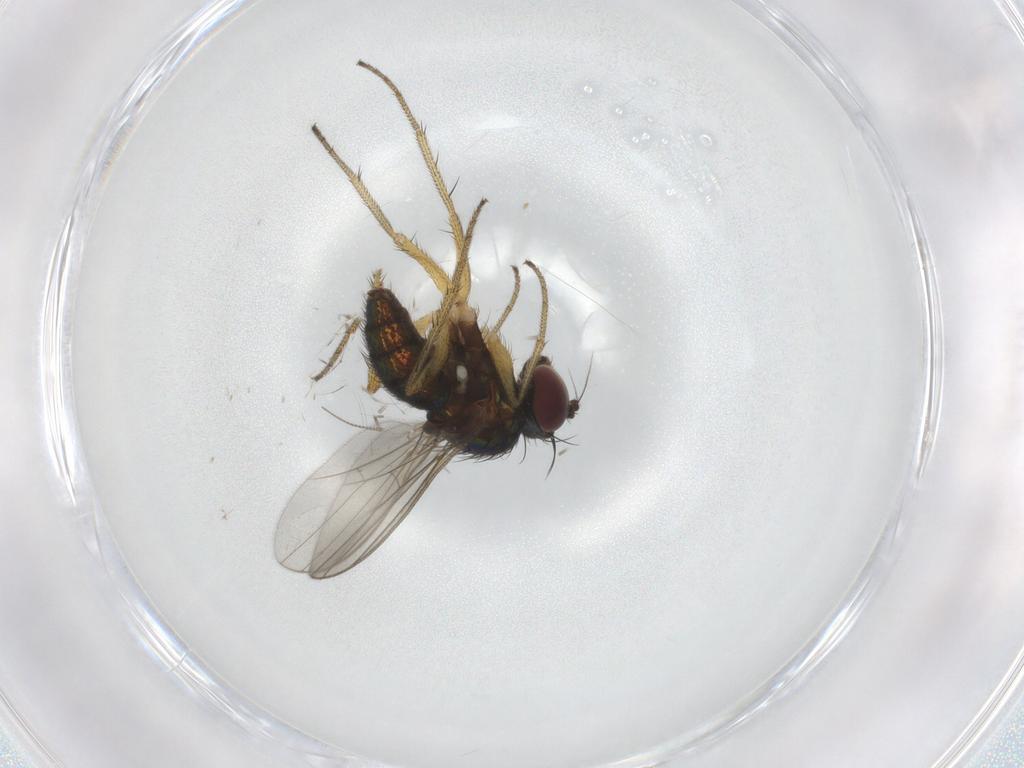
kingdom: Animalia
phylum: Arthropoda
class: Insecta
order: Diptera
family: Chironomidae
